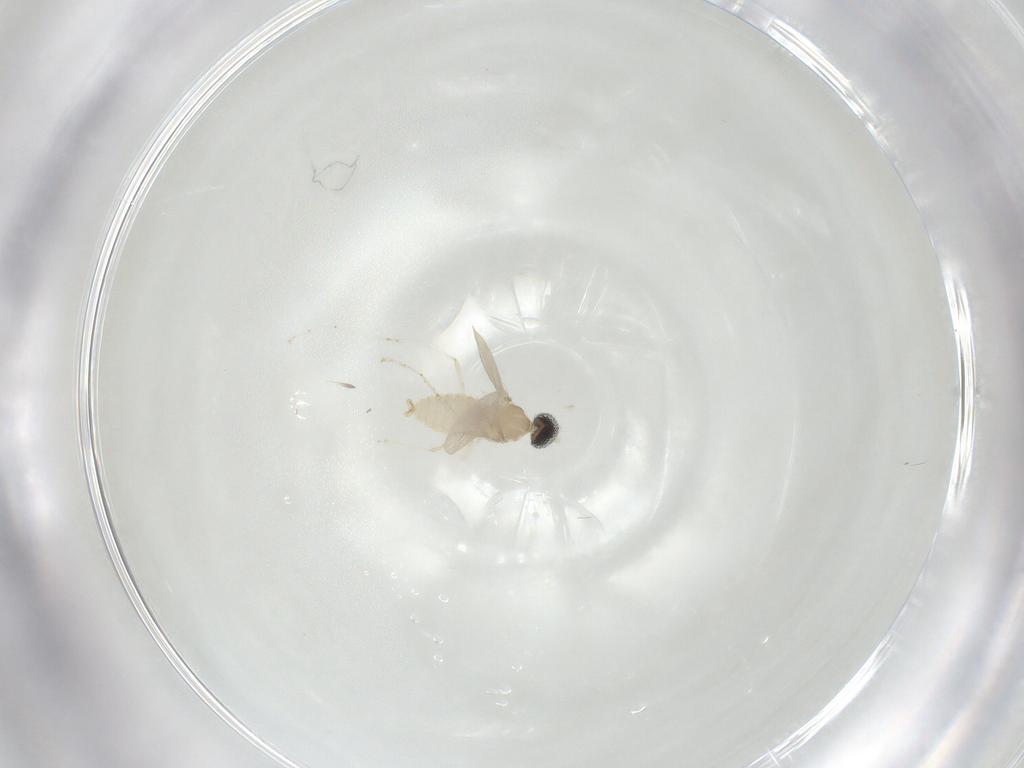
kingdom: Animalia
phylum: Arthropoda
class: Insecta
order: Diptera
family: Cecidomyiidae
